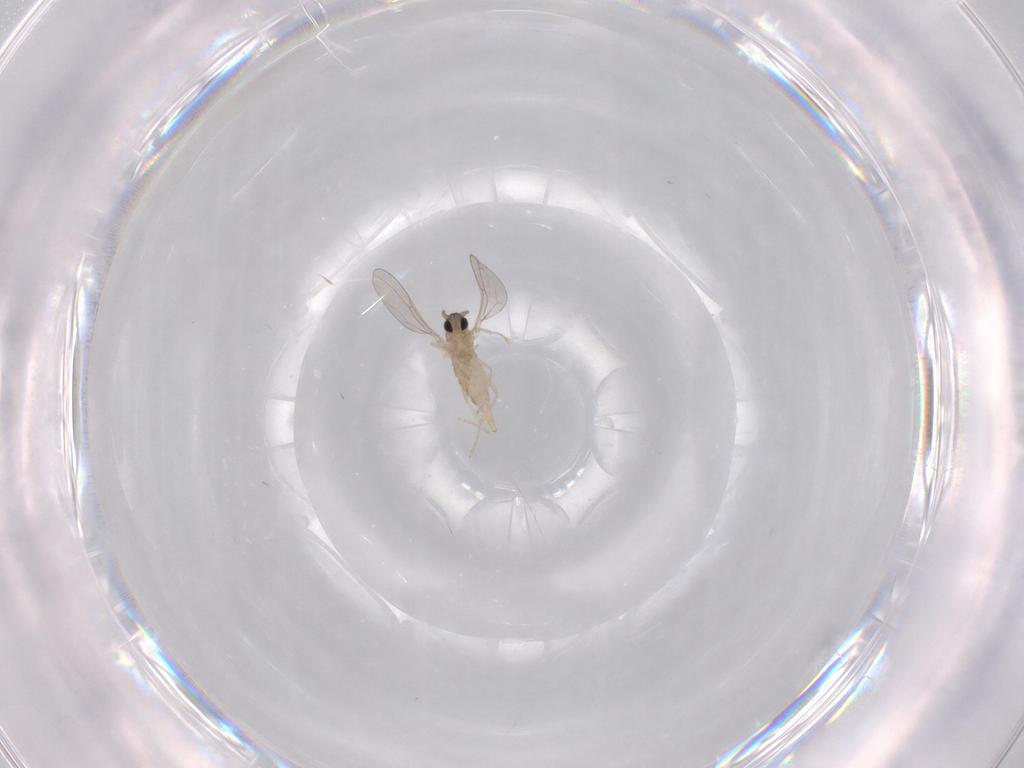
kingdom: Animalia
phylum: Arthropoda
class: Insecta
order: Diptera
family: Cecidomyiidae
